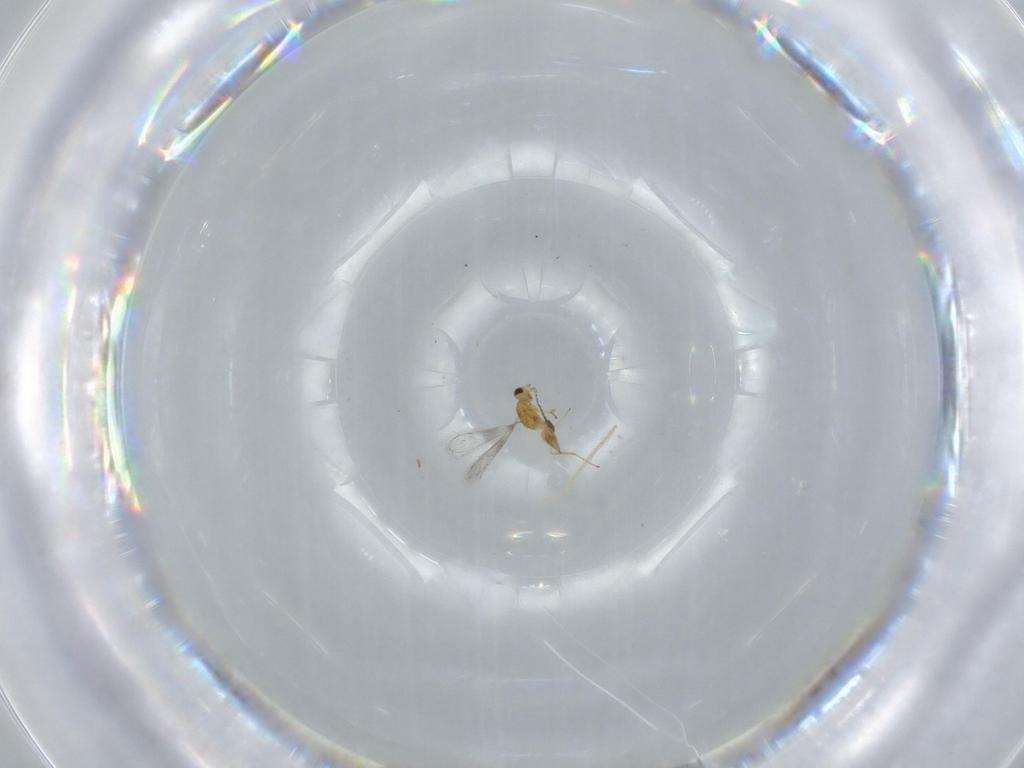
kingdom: Animalia
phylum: Arthropoda
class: Insecta
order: Hymenoptera
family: Mymaridae
